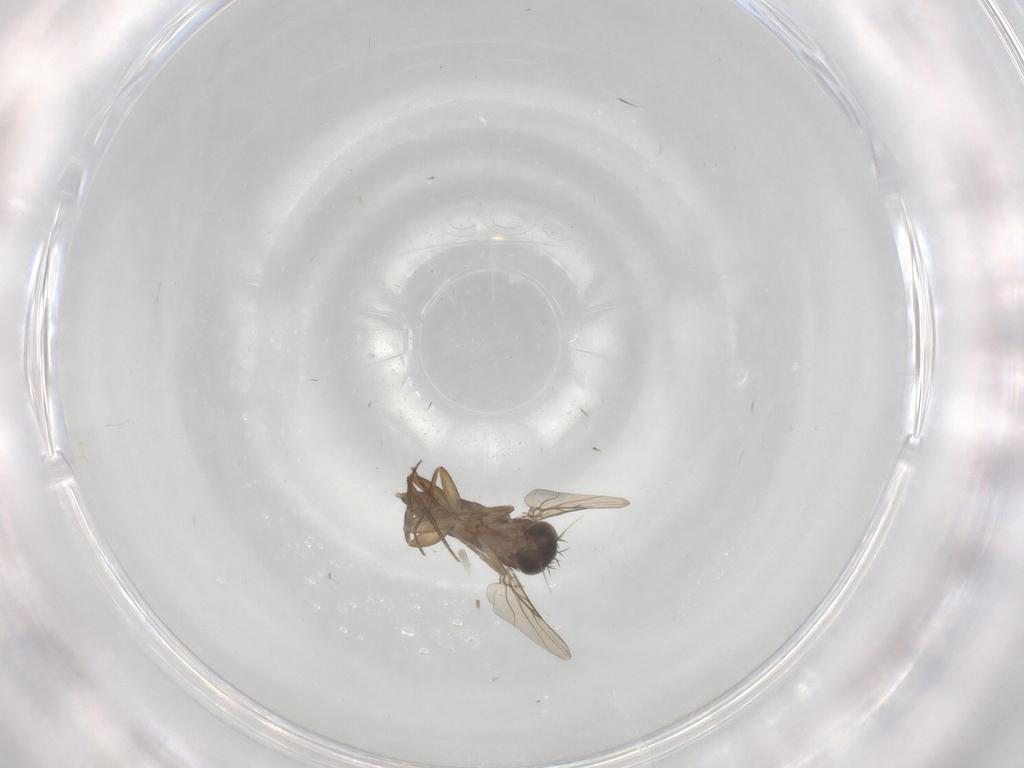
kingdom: Animalia
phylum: Arthropoda
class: Insecta
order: Diptera
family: Phoridae
